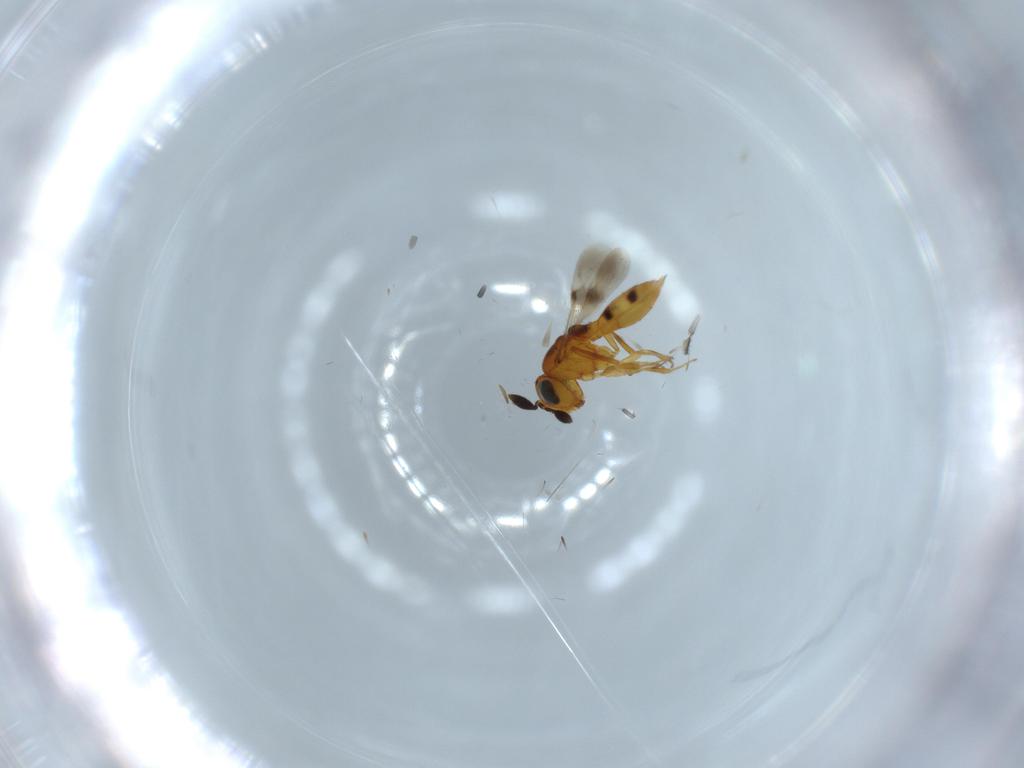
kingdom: Animalia
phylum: Arthropoda
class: Insecta
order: Hymenoptera
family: Scelionidae
